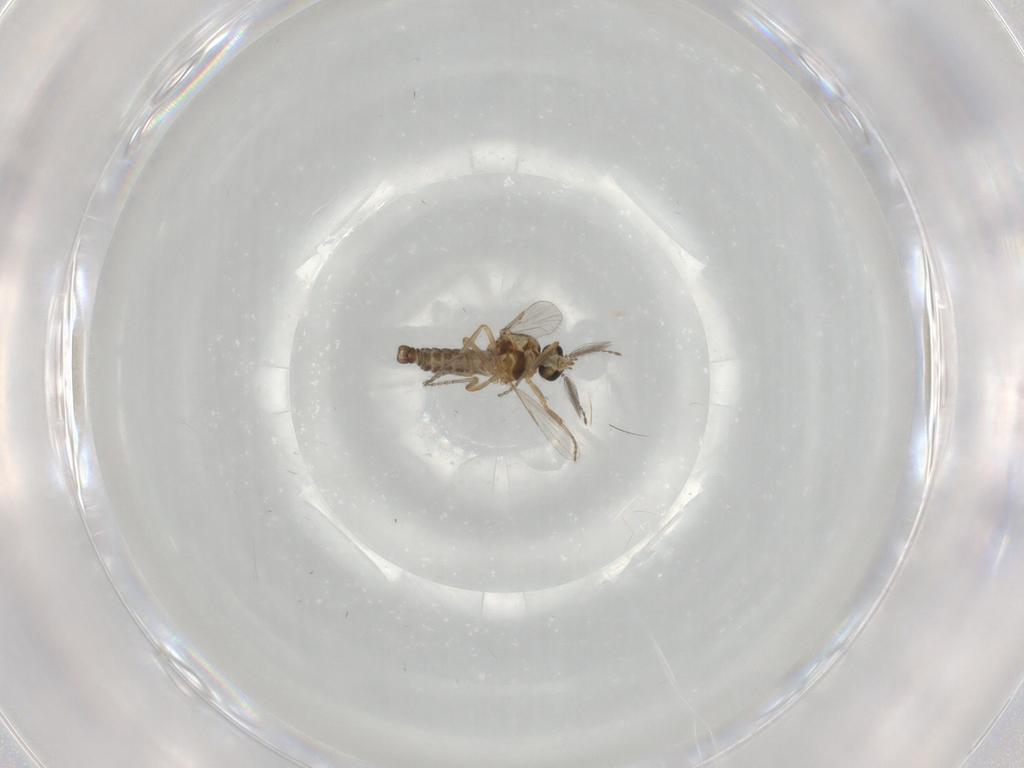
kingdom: Animalia
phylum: Arthropoda
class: Insecta
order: Diptera
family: Ceratopogonidae
